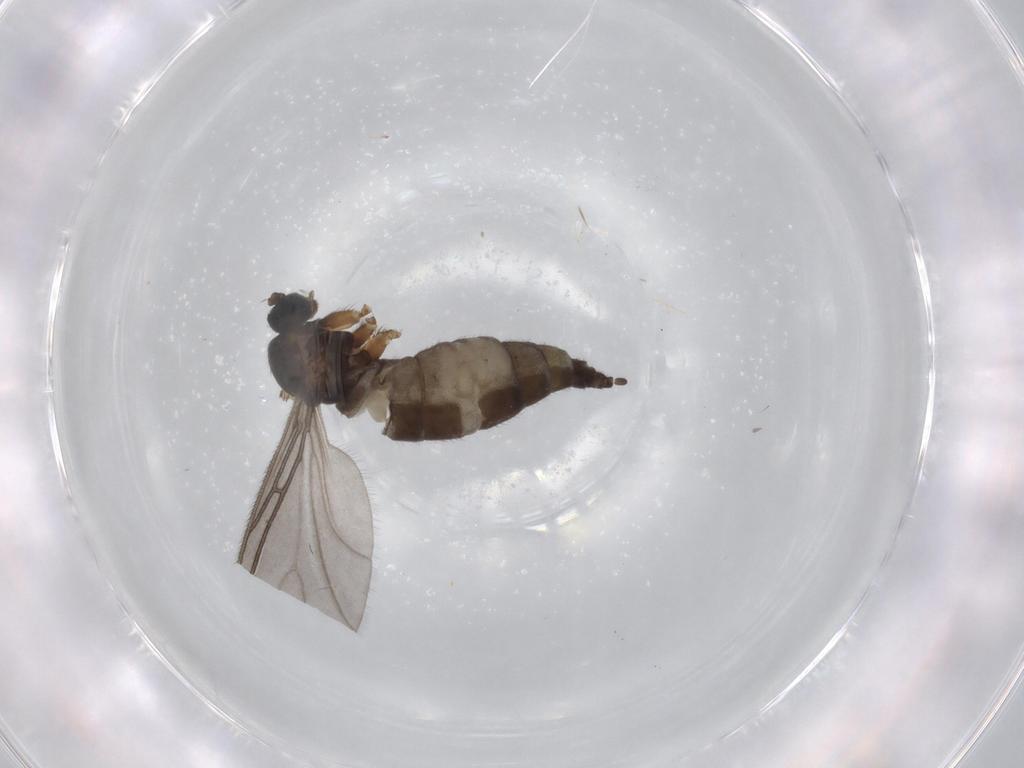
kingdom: Animalia
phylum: Arthropoda
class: Insecta
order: Diptera
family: Sciaridae
